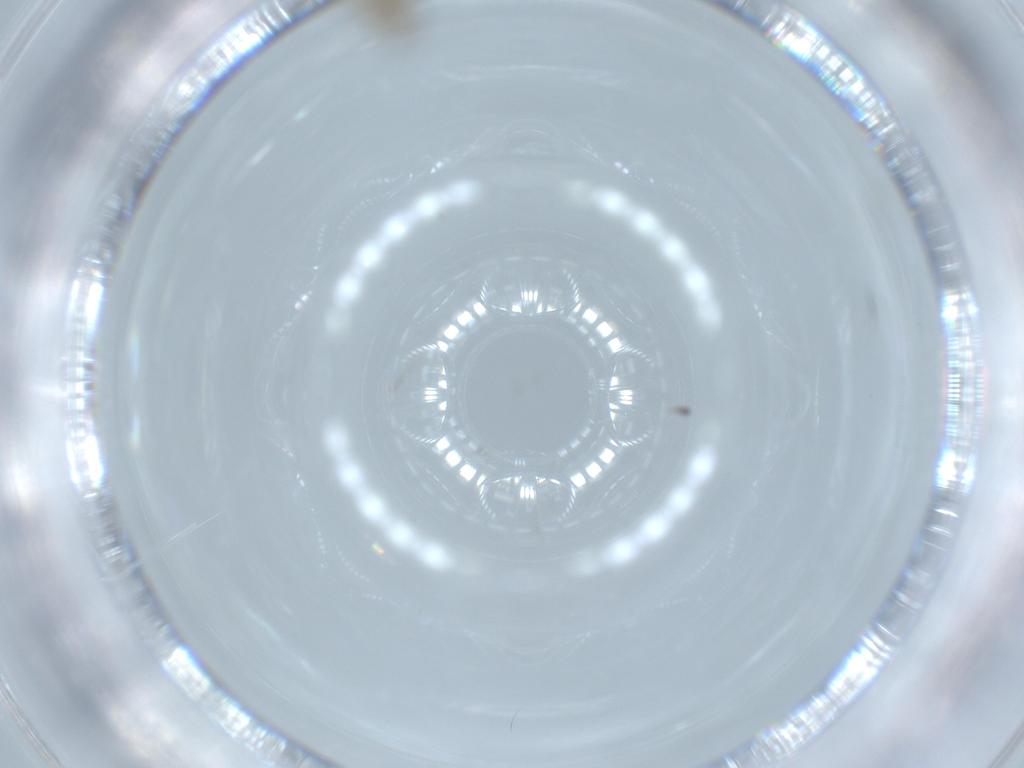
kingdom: Animalia
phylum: Arthropoda
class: Insecta
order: Diptera
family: Chironomidae
